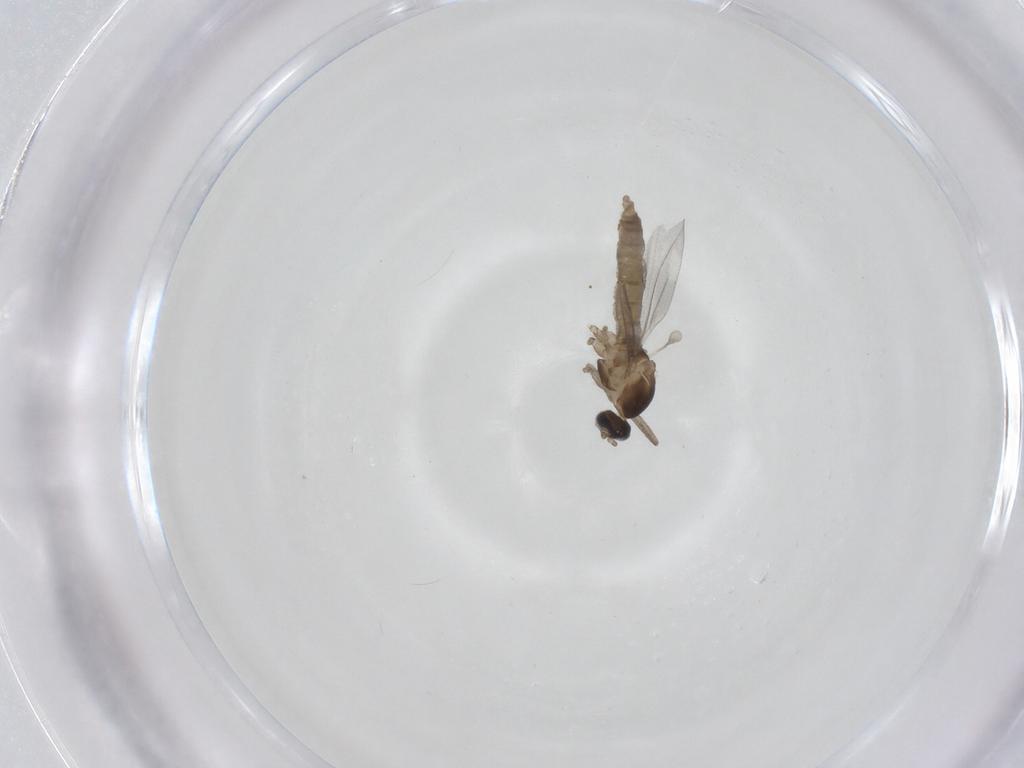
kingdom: Animalia
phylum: Arthropoda
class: Insecta
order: Diptera
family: Cecidomyiidae
